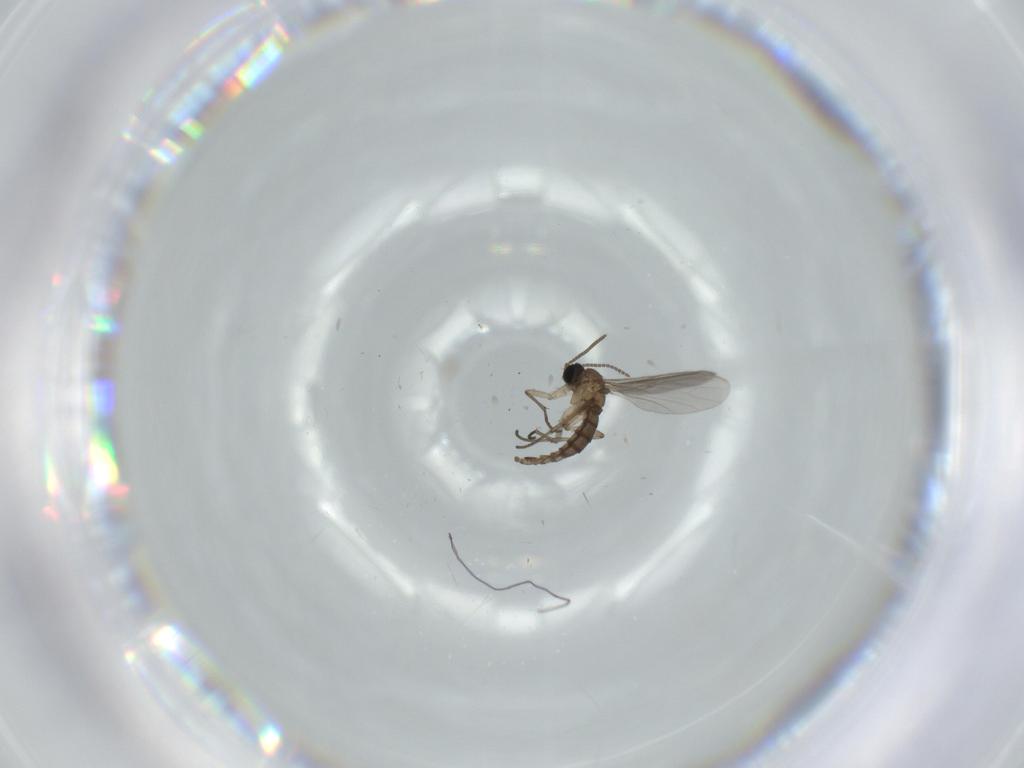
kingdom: Animalia
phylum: Arthropoda
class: Insecta
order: Diptera
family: Sciaridae
